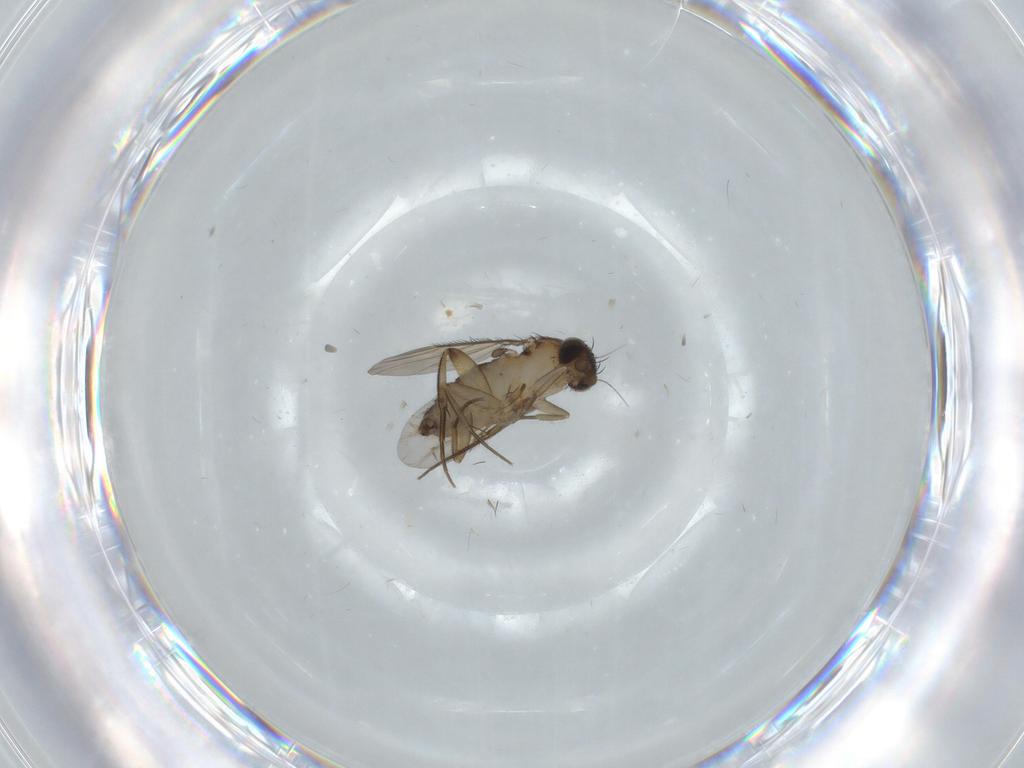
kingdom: Animalia
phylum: Arthropoda
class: Insecta
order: Diptera
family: Phoridae
